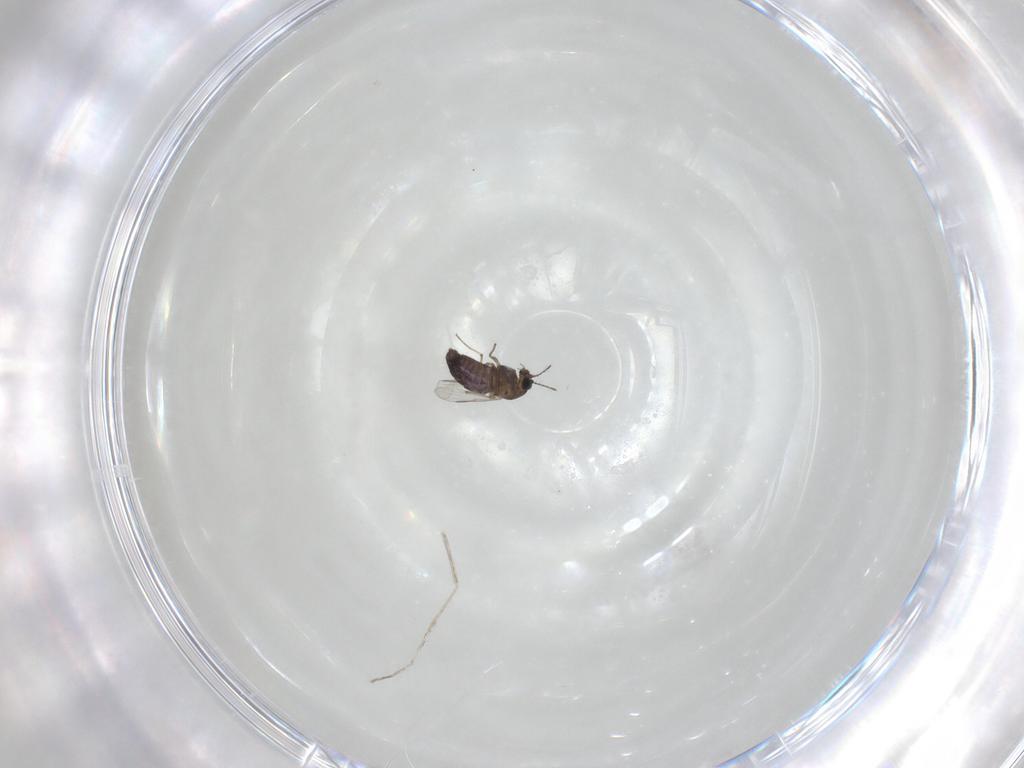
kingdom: Animalia
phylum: Arthropoda
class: Insecta
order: Diptera
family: Cecidomyiidae
